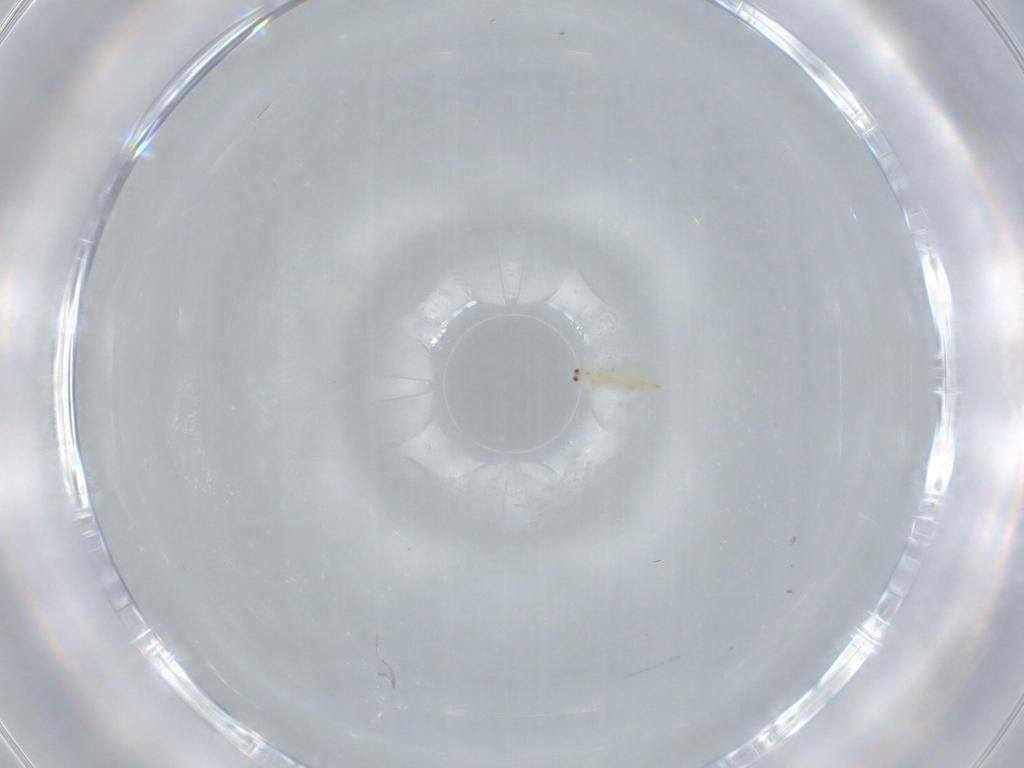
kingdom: Animalia
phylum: Arthropoda
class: Insecta
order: Thysanoptera
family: Thripidae
